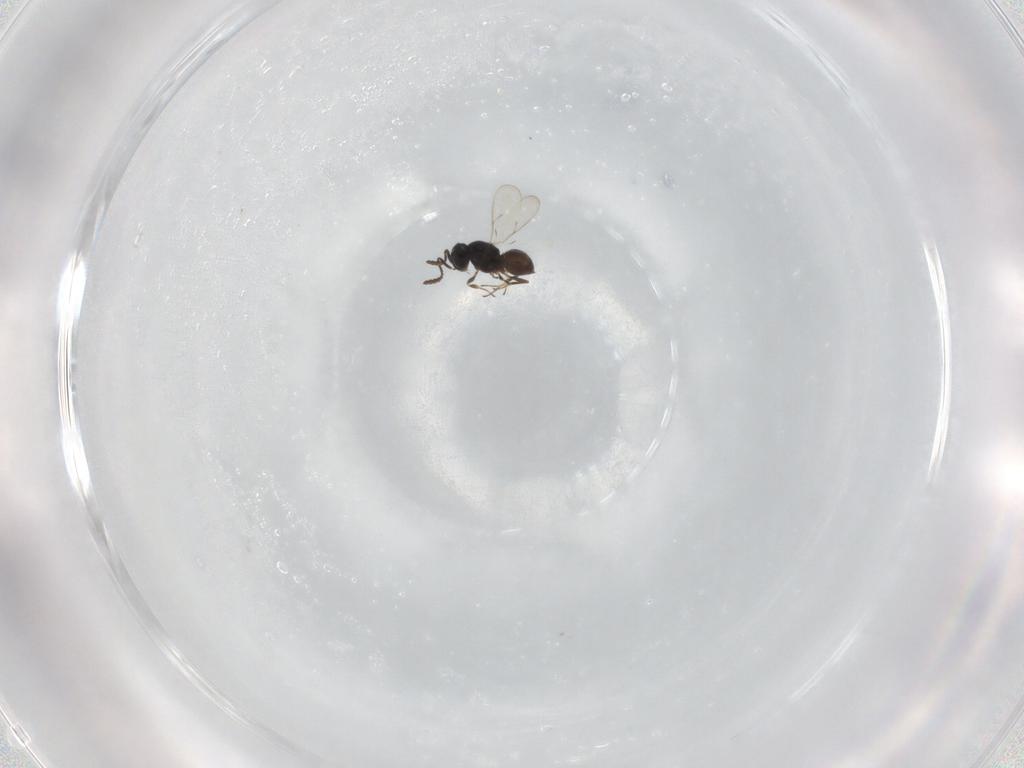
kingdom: Animalia
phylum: Arthropoda
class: Insecta
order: Hymenoptera
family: Scelionidae
